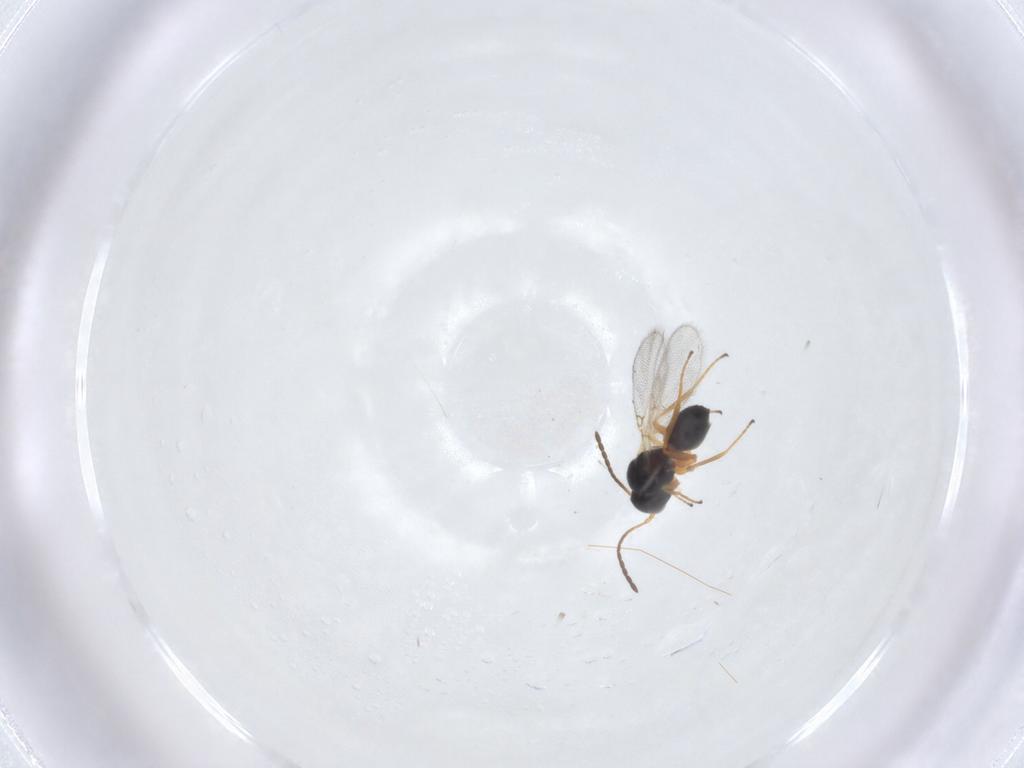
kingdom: Animalia
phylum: Arthropoda
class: Insecta
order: Hymenoptera
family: Figitidae
